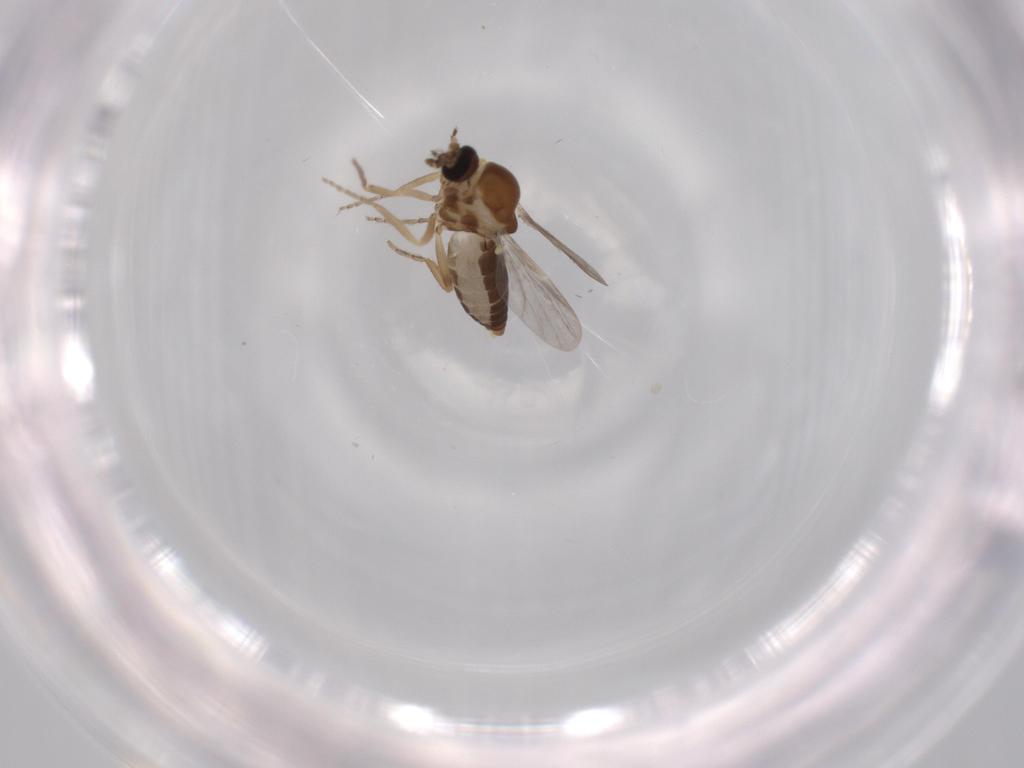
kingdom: Animalia
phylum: Arthropoda
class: Insecta
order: Diptera
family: Ceratopogonidae
